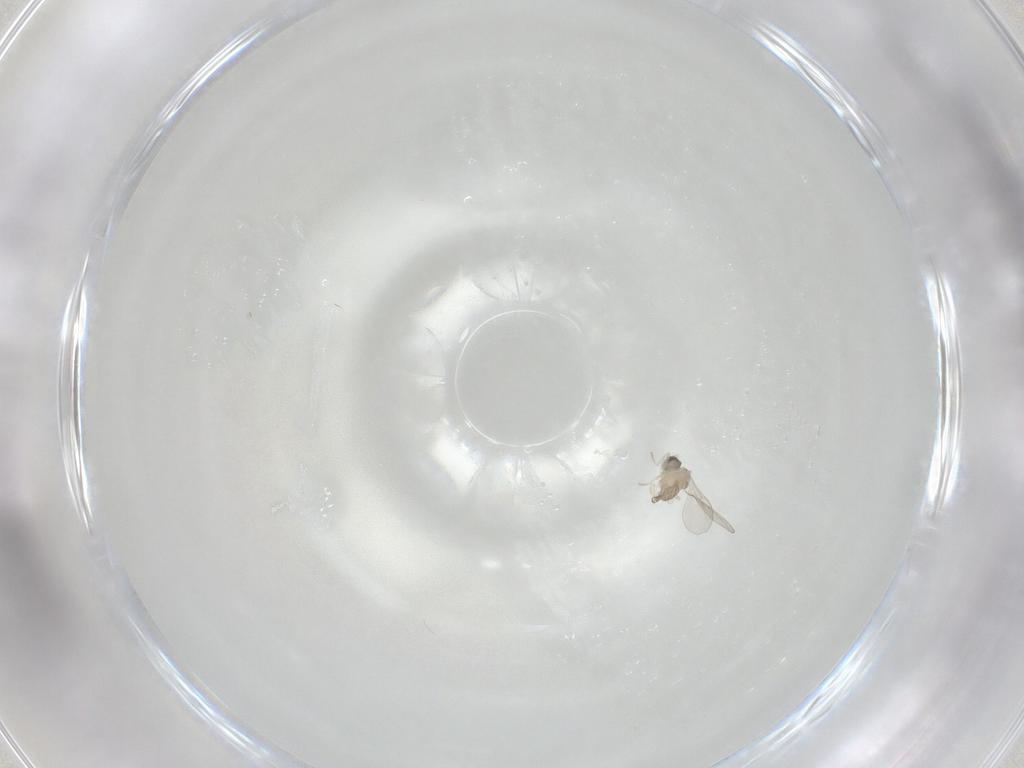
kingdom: Animalia
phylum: Arthropoda
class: Insecta
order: Diptera
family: Cecidomyiidae
